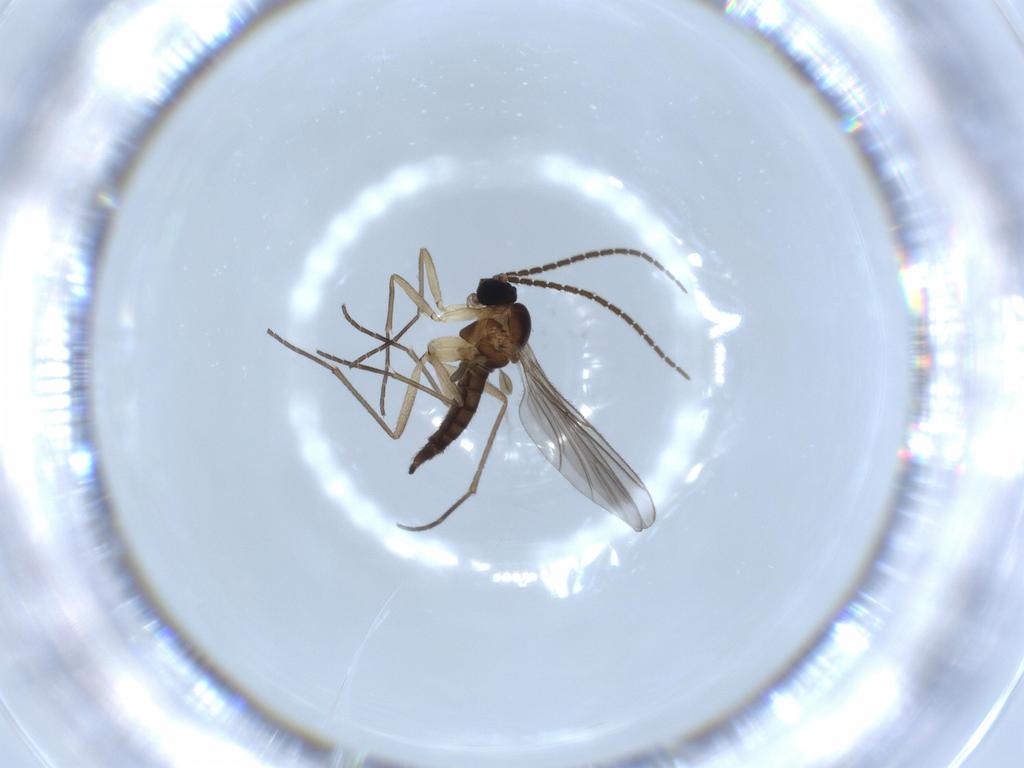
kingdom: Animalia
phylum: Arthropoda
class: Insecta
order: Diptera
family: Sciaridae
